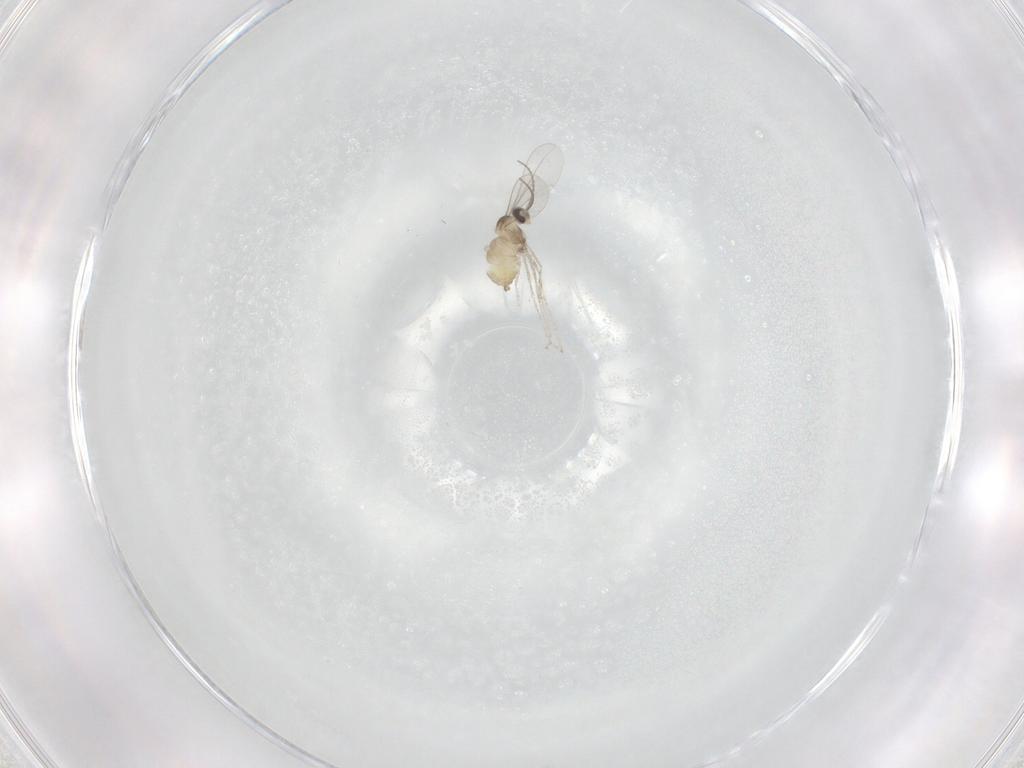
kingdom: Animalia
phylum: Arthropoda
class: Insecta
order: Diptera
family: Cecidomyiidae
